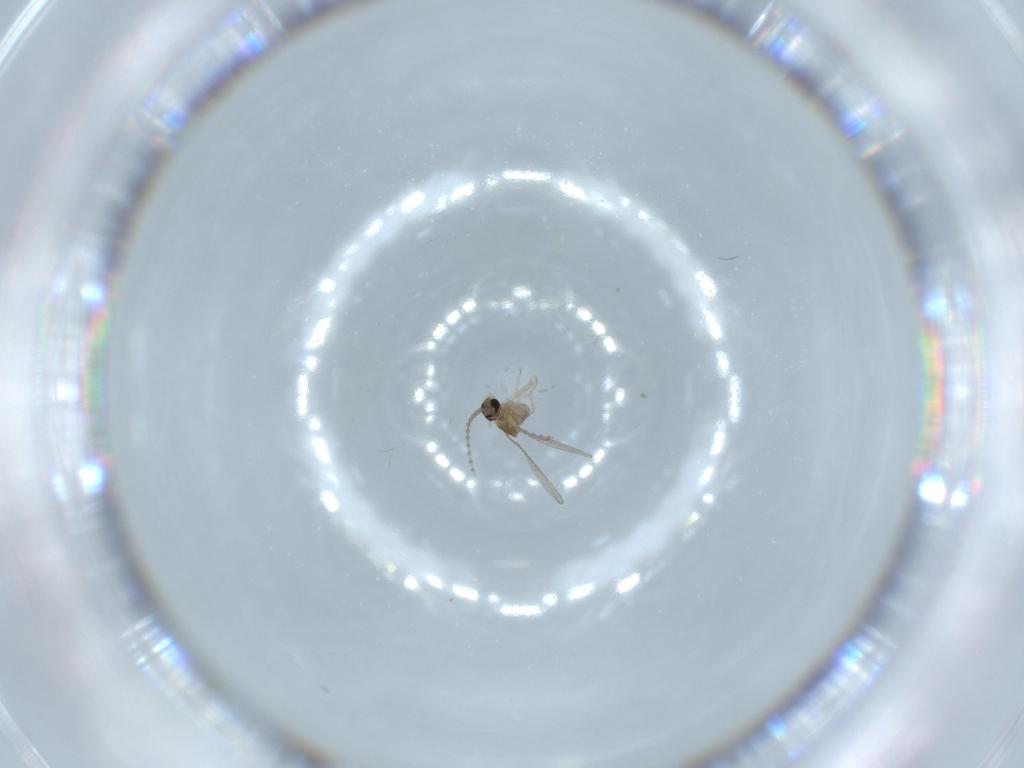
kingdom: Animalia
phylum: Arthropoda
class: Insecta
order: Diptera
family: Cecidomyiidae
